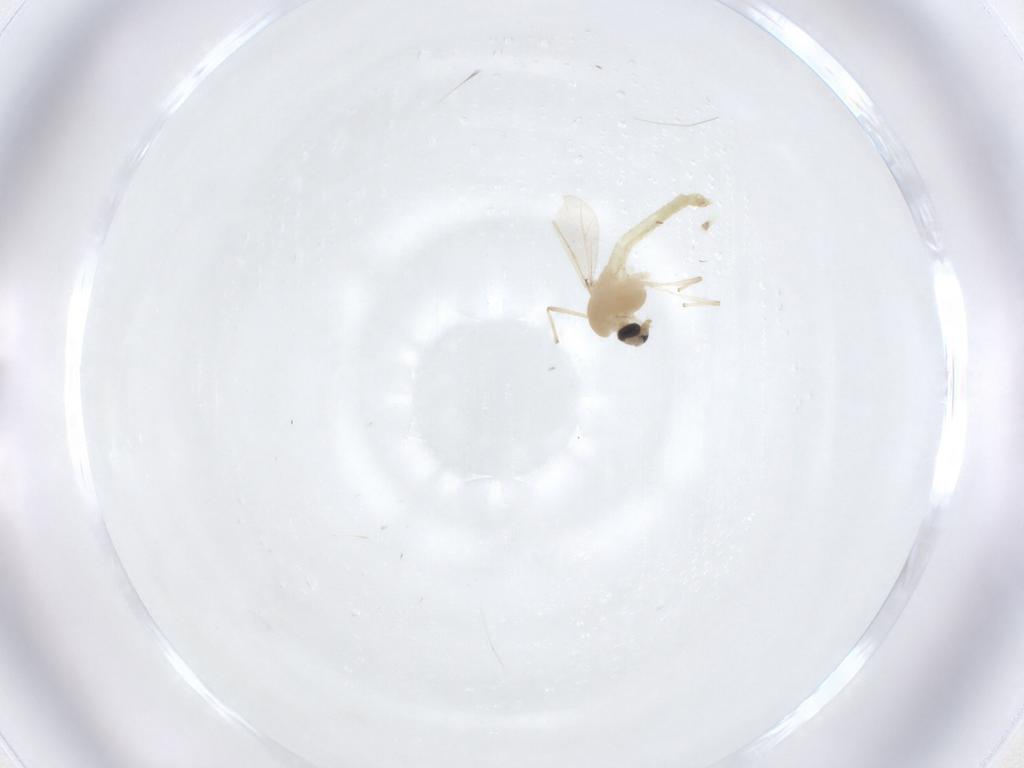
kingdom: Animalia
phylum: Arthropoda
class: Insecta
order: Diptera
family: Chironomidae
